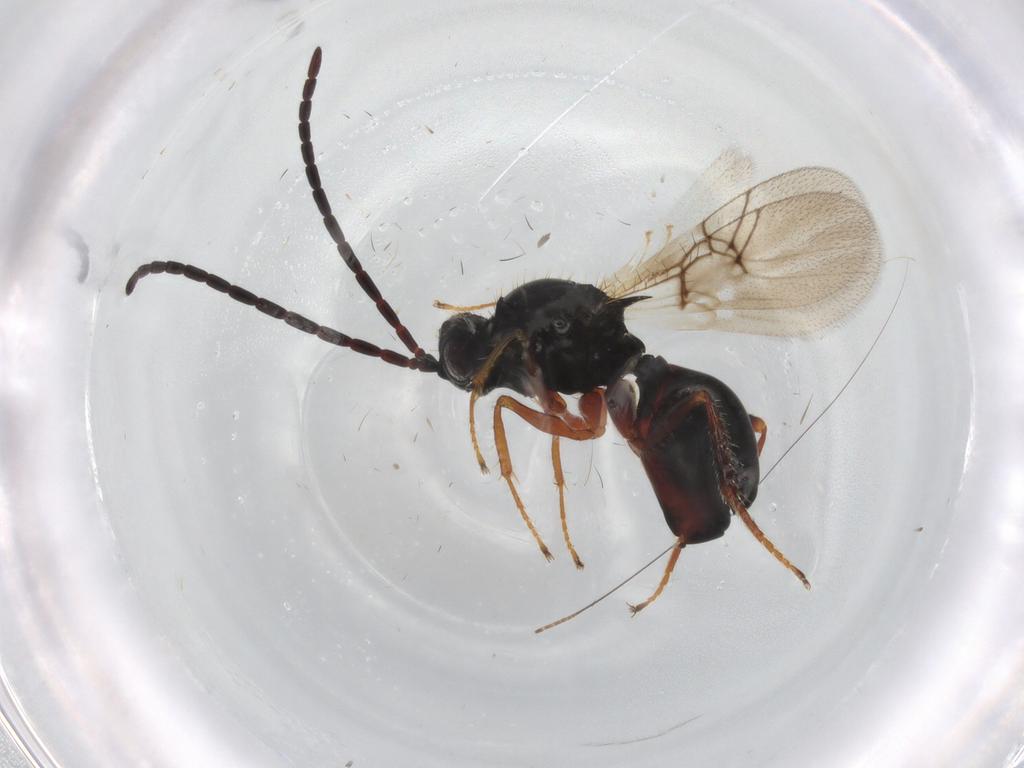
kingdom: Animalia
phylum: Arthropoda
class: Insecta
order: Hymenoptera
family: Figitidae
